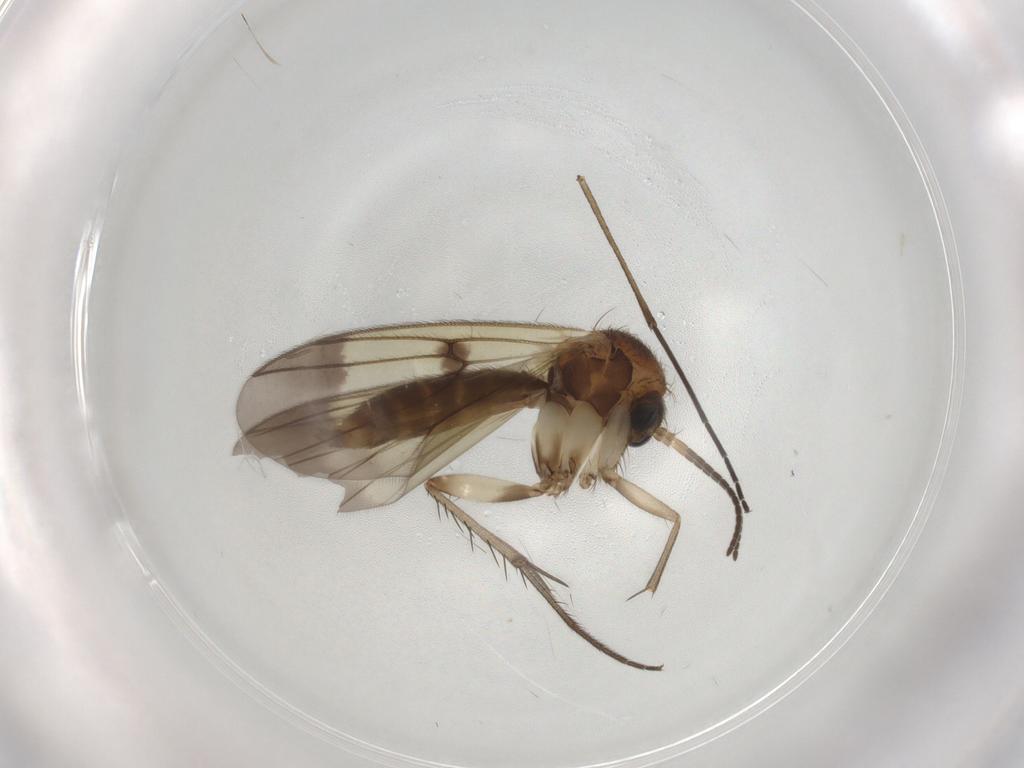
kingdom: Animalia
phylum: Arthropoda
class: Insecta
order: Diptera
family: Sciaridae
